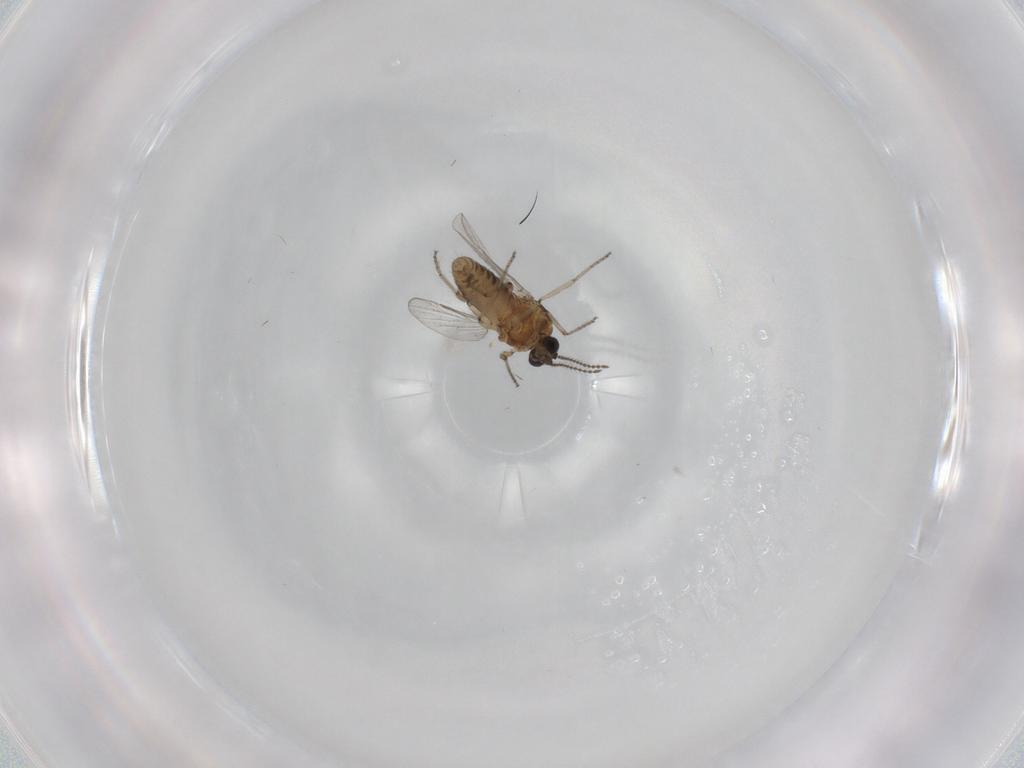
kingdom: Animalia
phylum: Arthropoda
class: Insecta
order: Diptera
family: Ceratopogonidae
